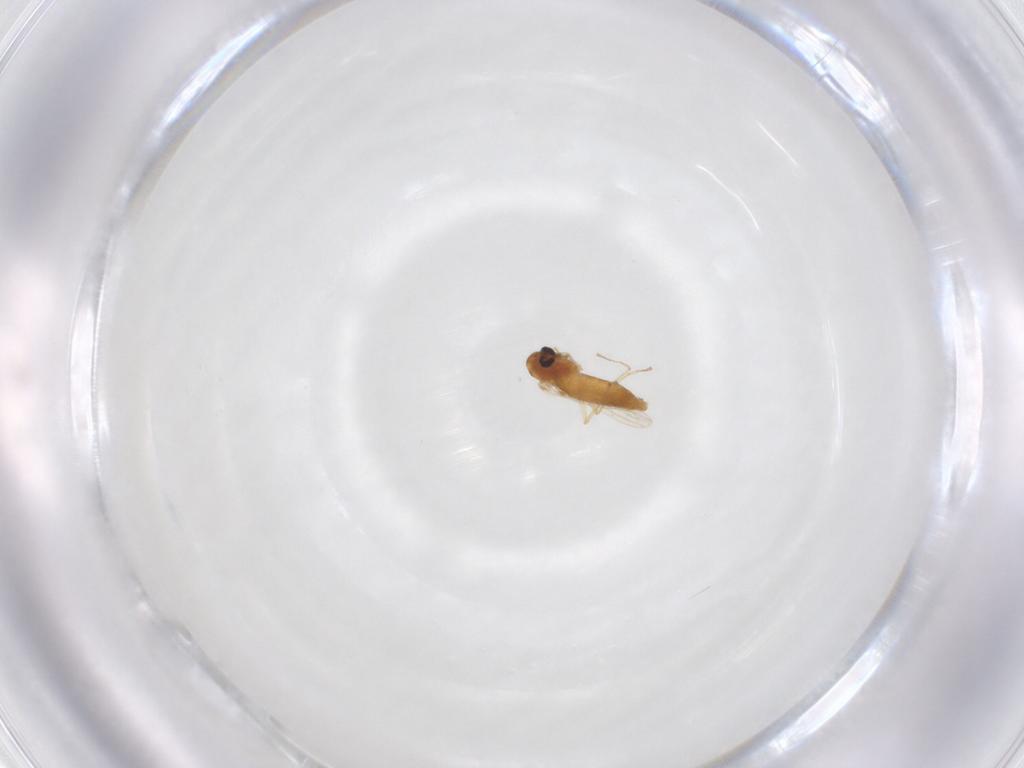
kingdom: Animalia
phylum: Arthropoda
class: Insecta
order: Diptera
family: Chironomidae
